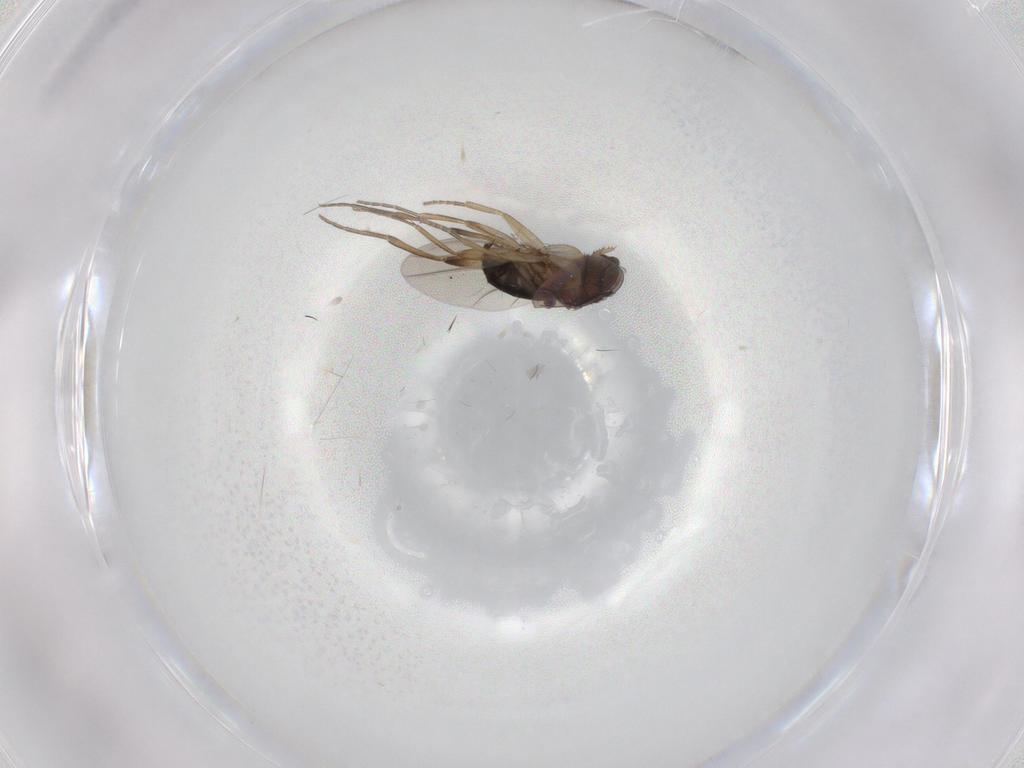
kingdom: Animalia
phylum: Arthropoda
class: Insecta
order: Diptera
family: Phoridae
